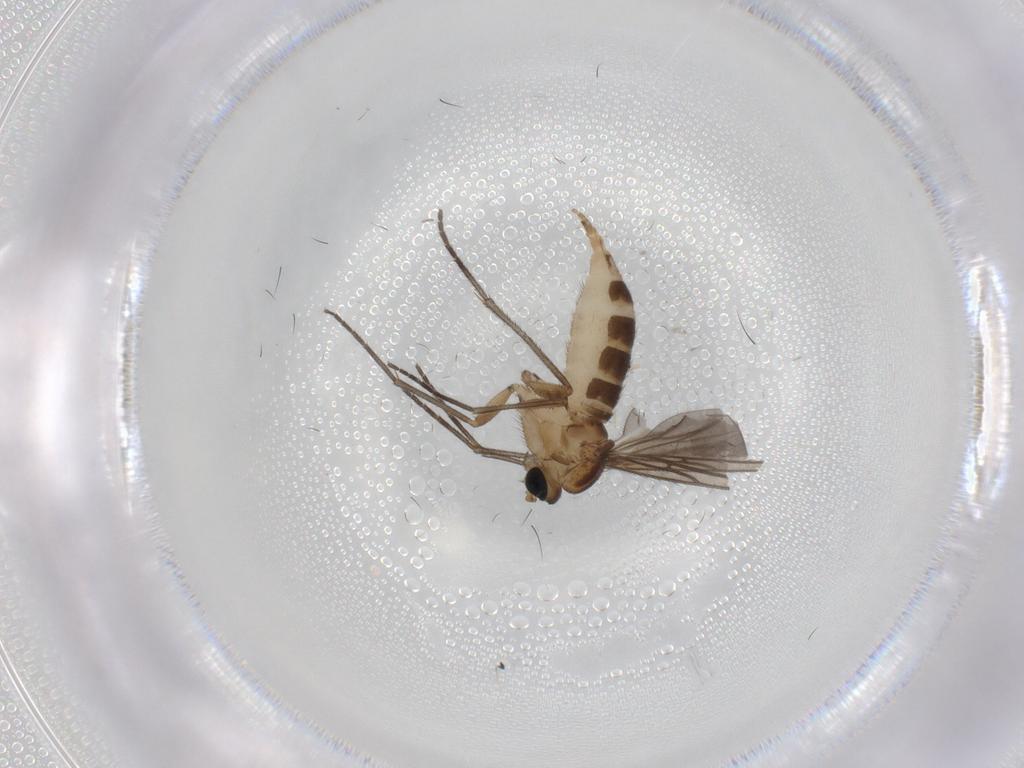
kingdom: Animalia
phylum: Arthropoda
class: Insecta
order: Diptera
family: Sciaridae
